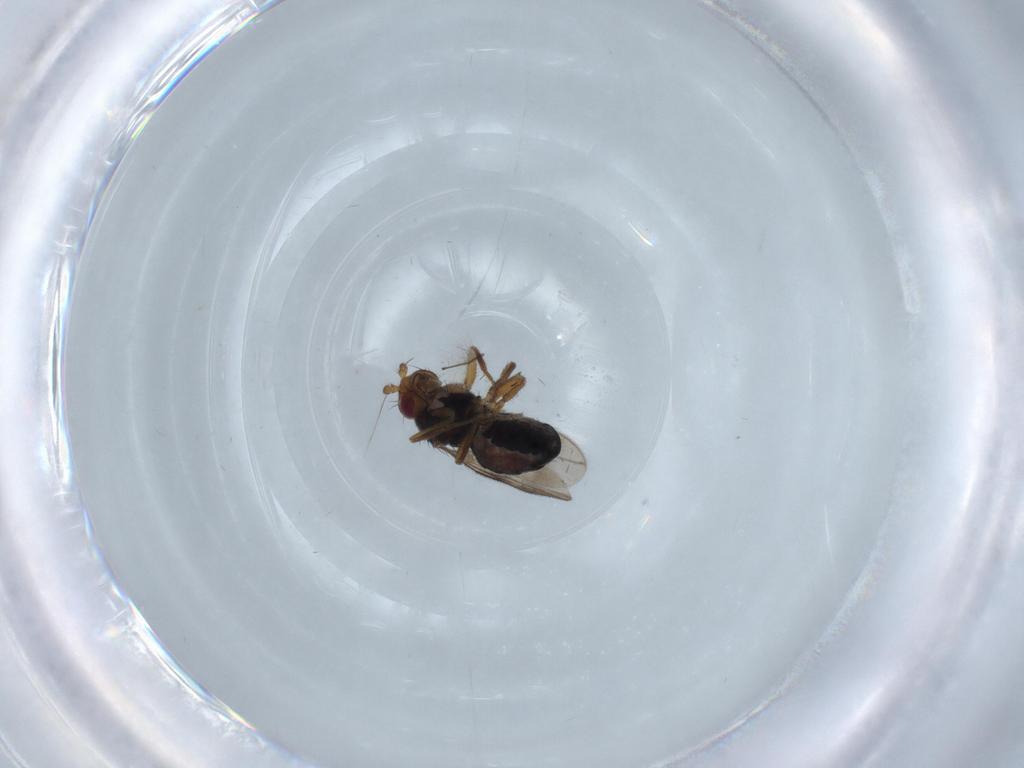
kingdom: Animalia
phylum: Arthropoda
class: Insecta
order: Diptera
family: Sphaeroceridae
